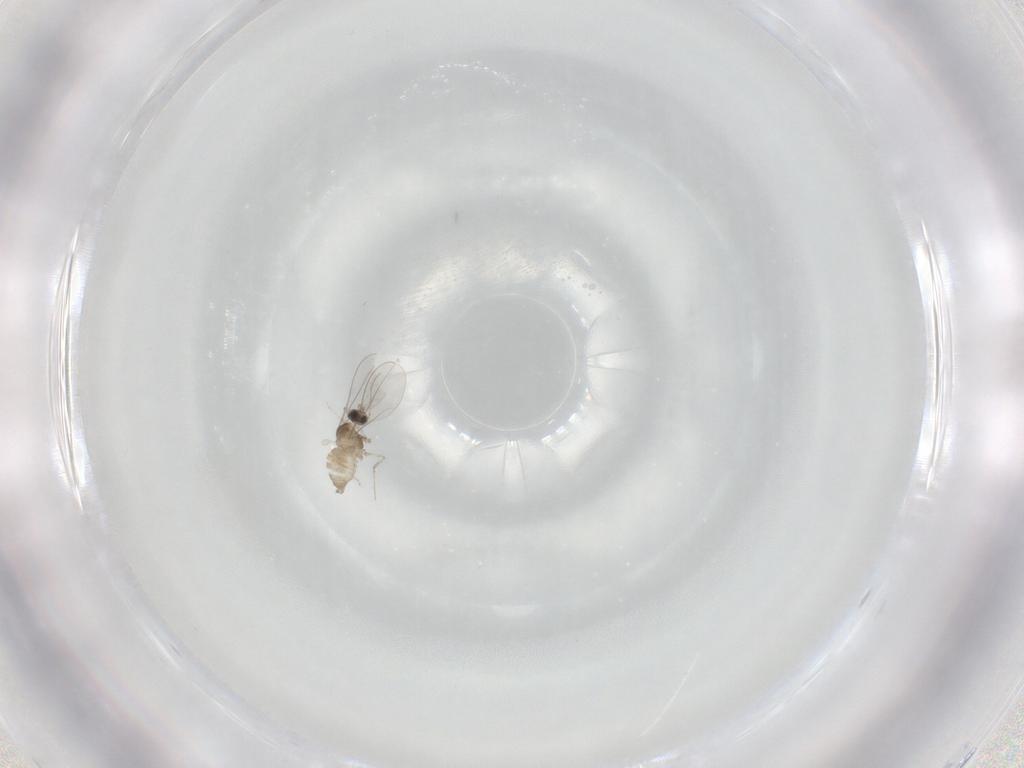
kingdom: Animalia
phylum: Arthropoda
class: Insecta
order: Diptera
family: Cecidomyiidae
